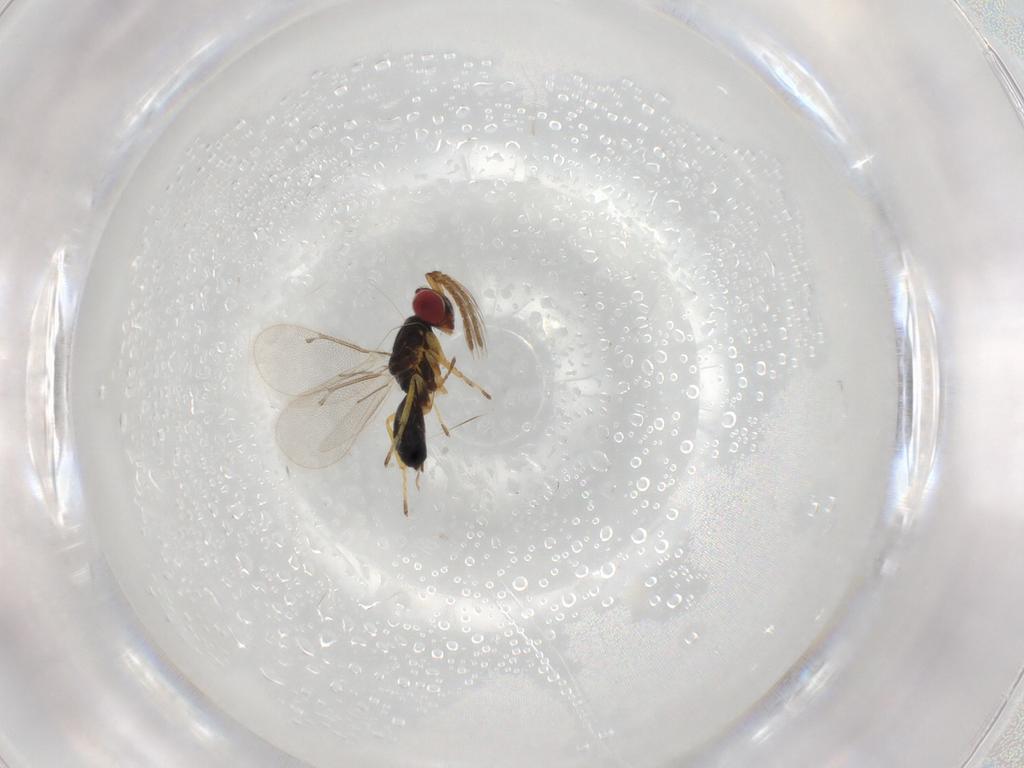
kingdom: Animalia
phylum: Arthropoda
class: Insecta
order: Hymenoptera
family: Eulophidae
